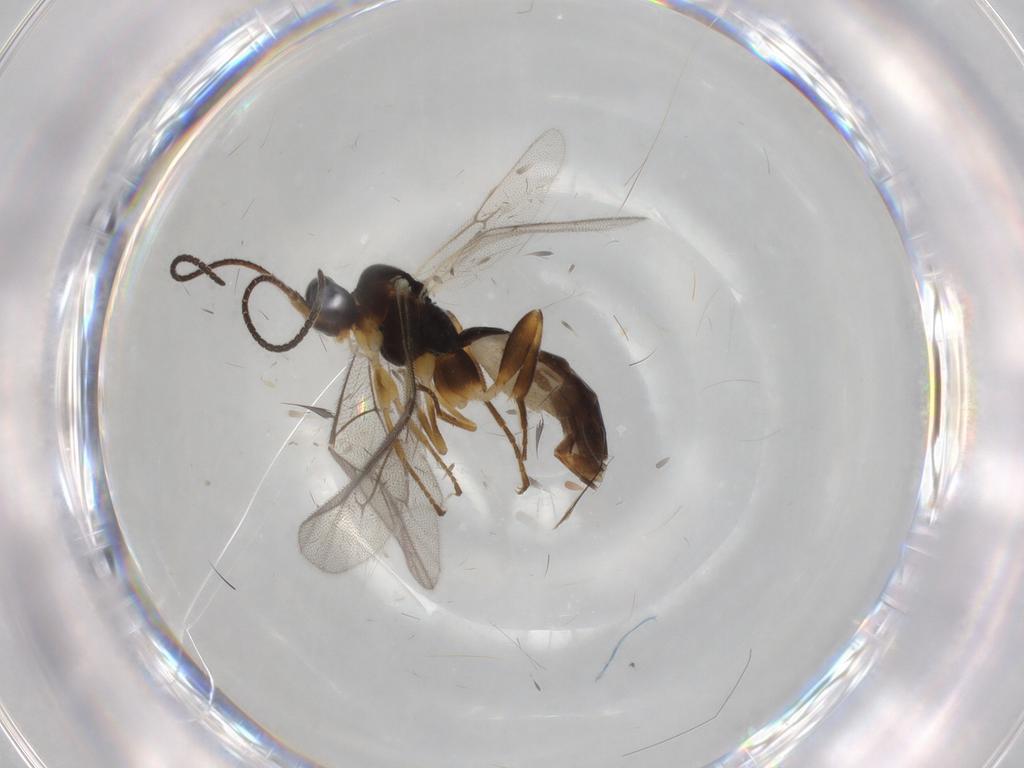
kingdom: Animalia
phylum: Arthropoda
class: Insecta
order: Hymenoptera
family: Ichneumonidae
